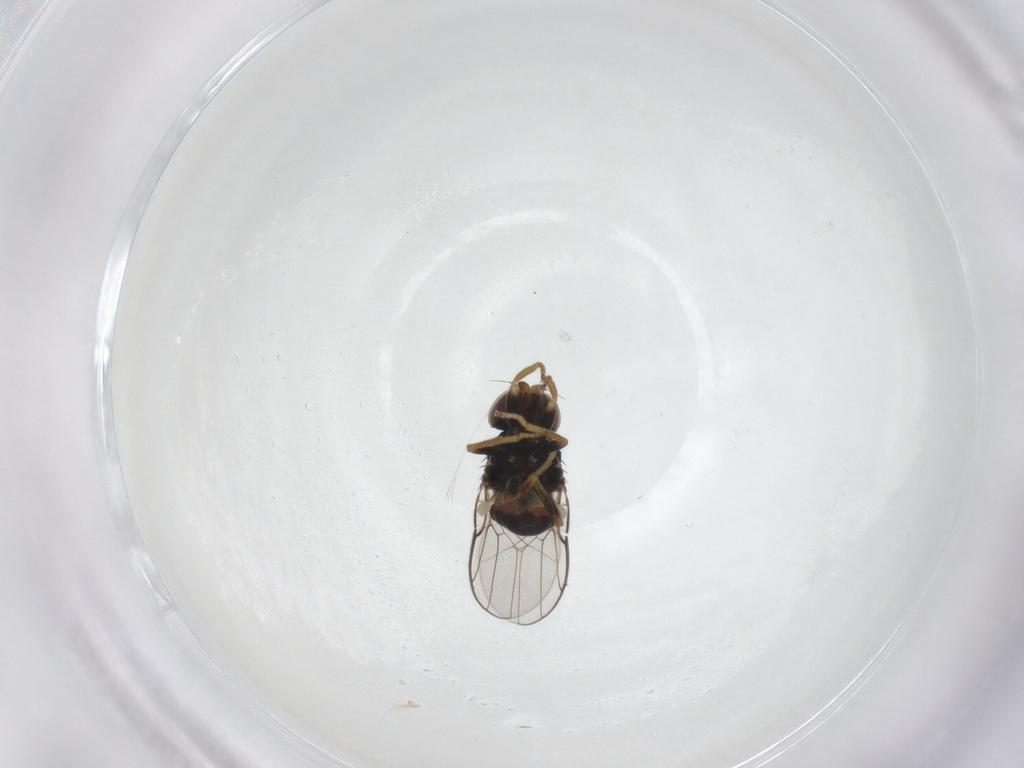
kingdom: Animalia
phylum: Arthropoda
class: Insecta
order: Diptera
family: Chloropidae
